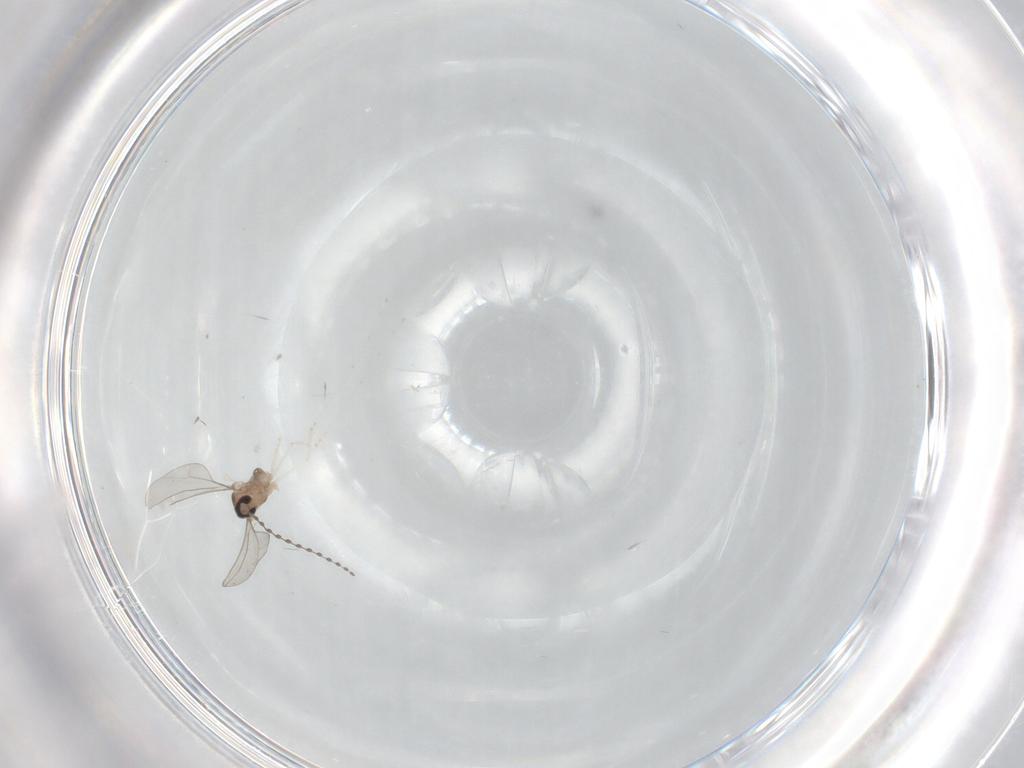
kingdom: Animalia
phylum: Arthropoda
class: Insecta
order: Diptera
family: Cecidomyiidae
